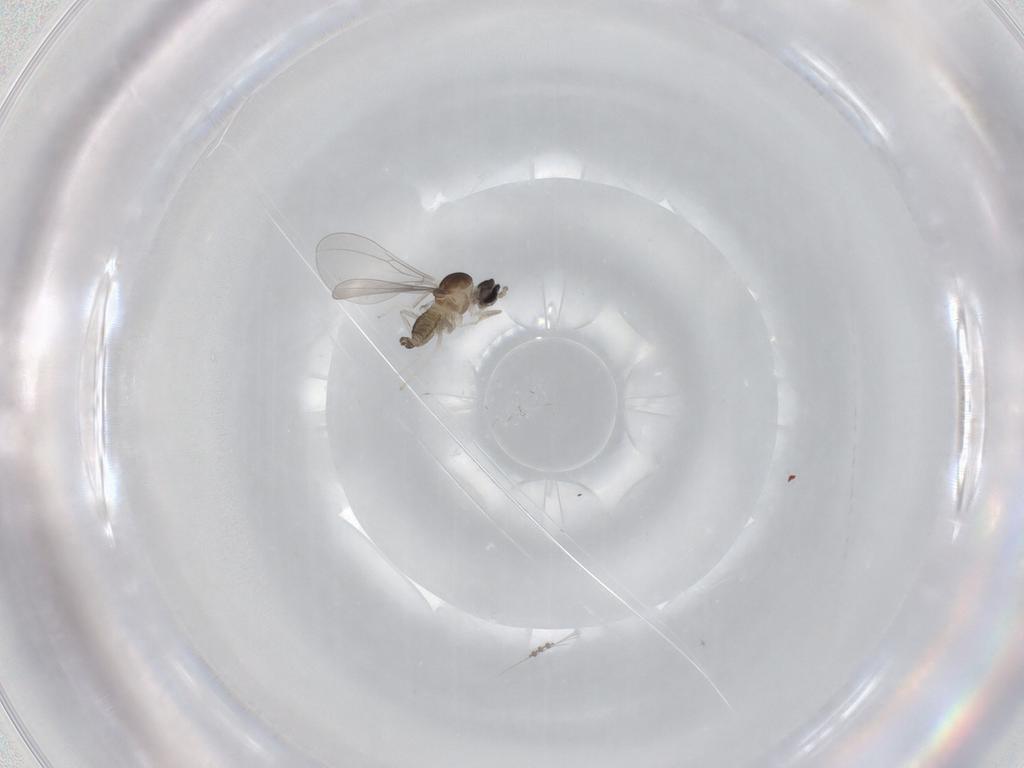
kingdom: Animalia
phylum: Arthropoda
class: Insecta
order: Diptera
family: Cecidomyiidae
